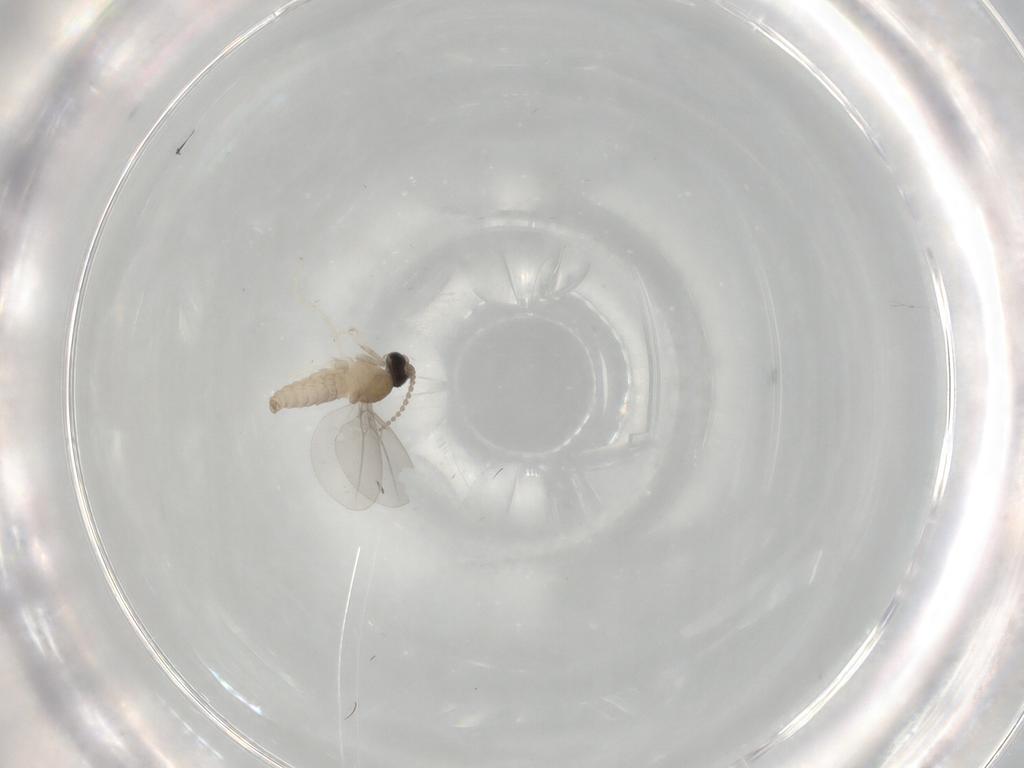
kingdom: Animalia
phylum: Arthropoda
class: Insecta
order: Diptera
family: Cecidomyiidae
